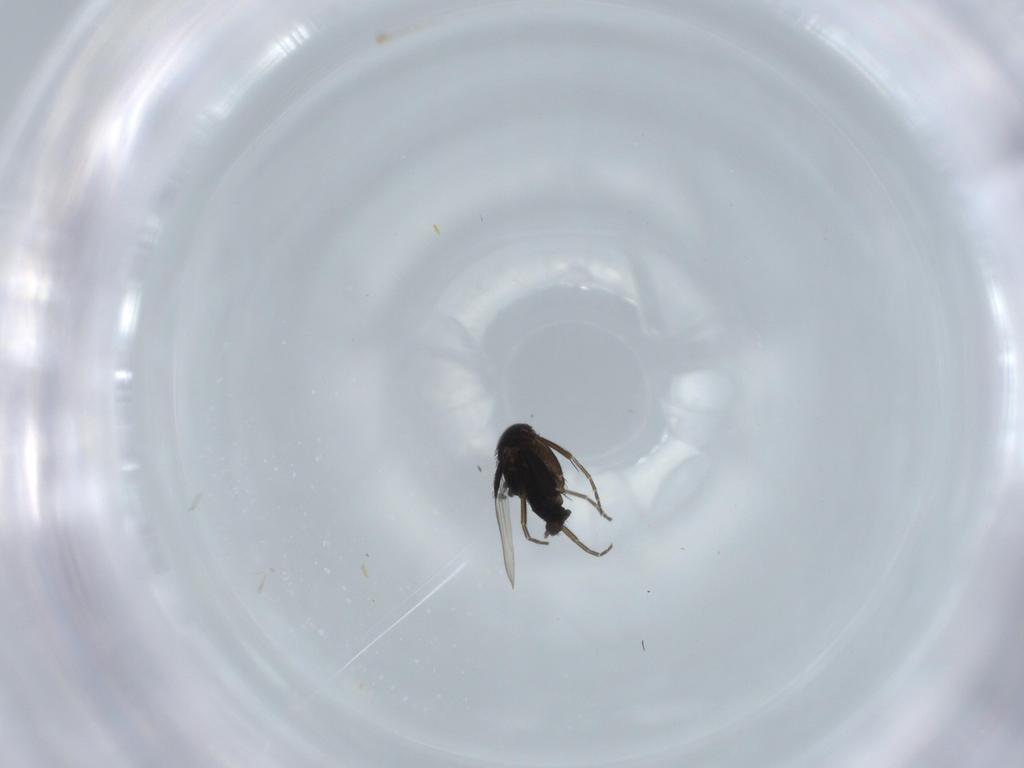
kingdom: Animalia
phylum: Arthropoda
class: Insecta
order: Diptera
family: Phoridae
